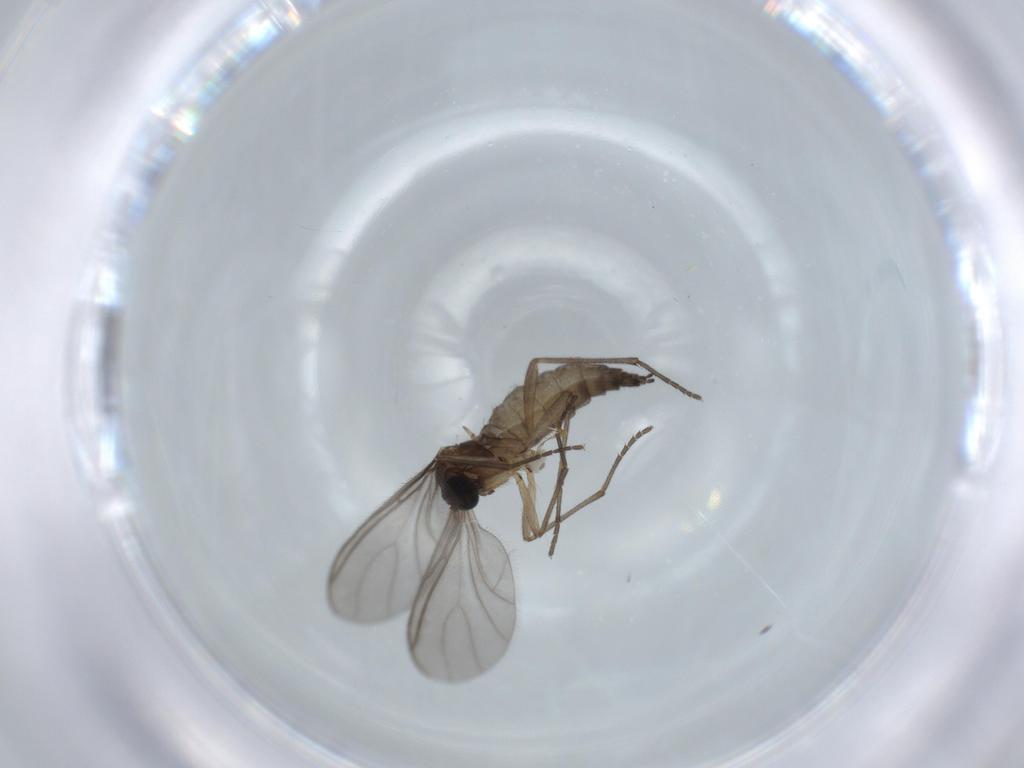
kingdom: Animalia
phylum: Arthropoda
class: Insecta
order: Diptera
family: Sciaridae
